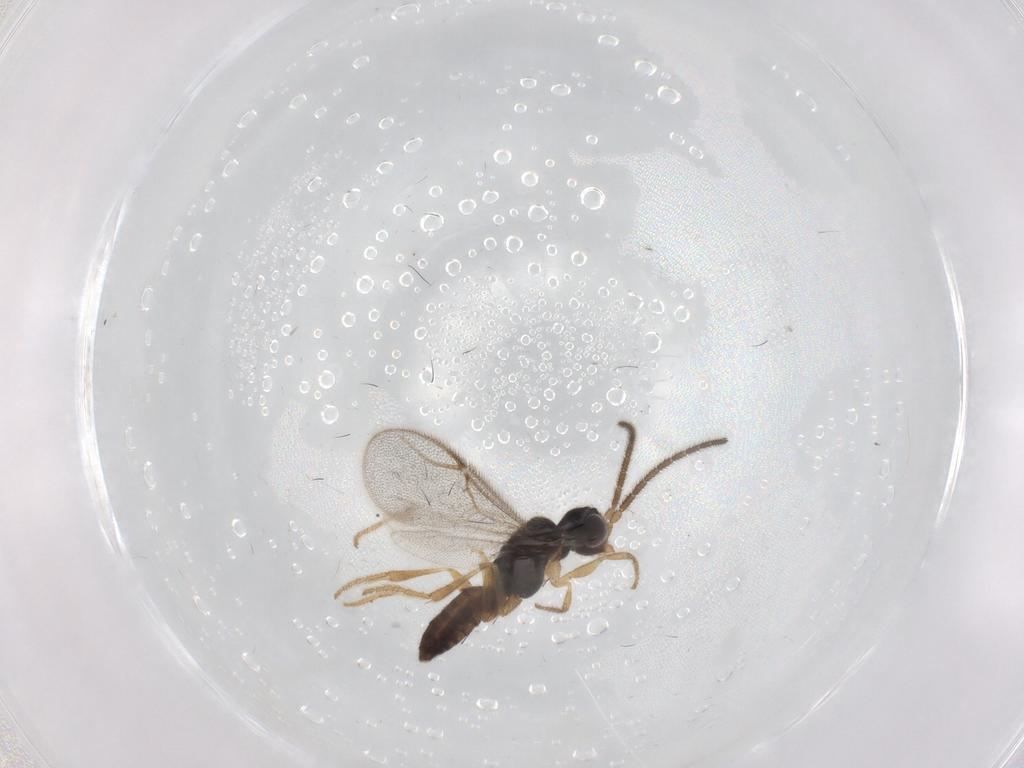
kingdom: Animalia
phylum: Arthropoda
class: Insecta
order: Hymenoptera
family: Dryinidae
